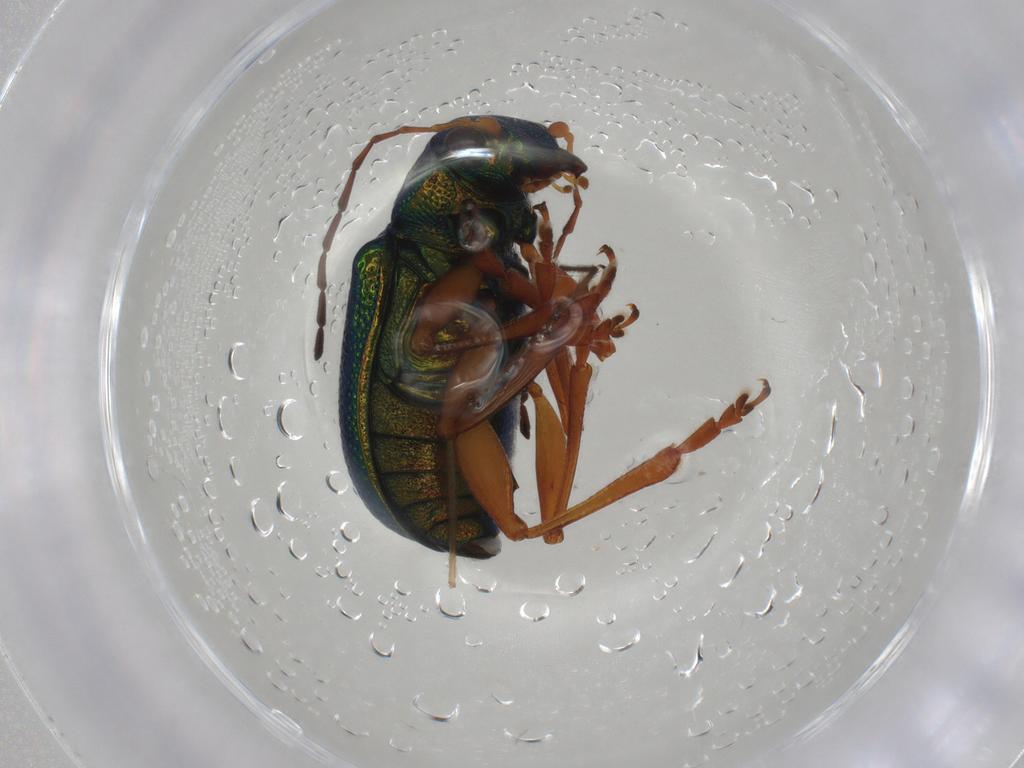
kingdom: Animalia
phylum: Arthropoda
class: Insecta
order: Coleoptera
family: Chrysomelidae
